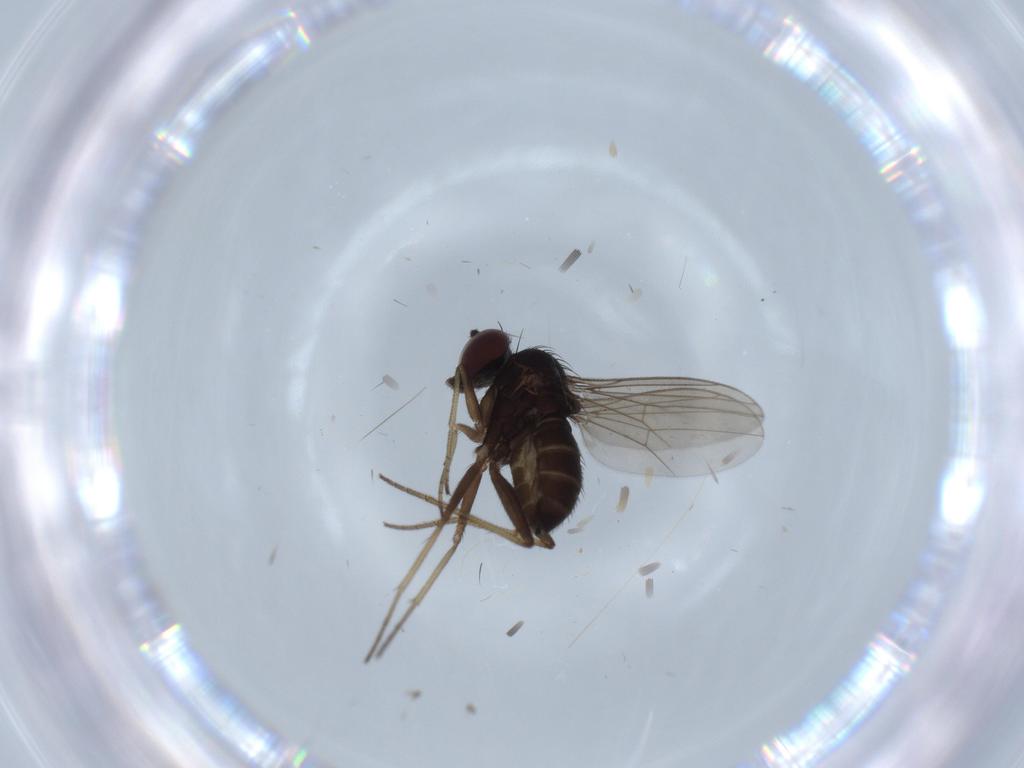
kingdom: Animalia
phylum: Arthropoda
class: Insecta
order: Diptera
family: Dolichopodidae
